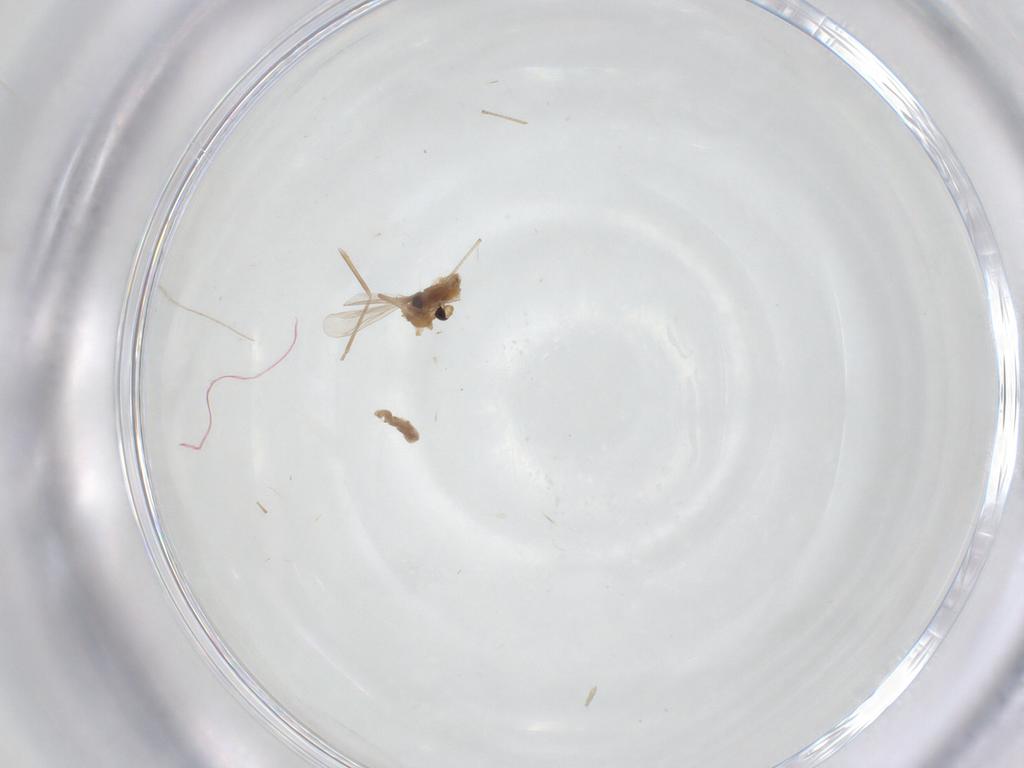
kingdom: Animalia
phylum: Arthropoda
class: Insecta
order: Diptera
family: Chironomidae
